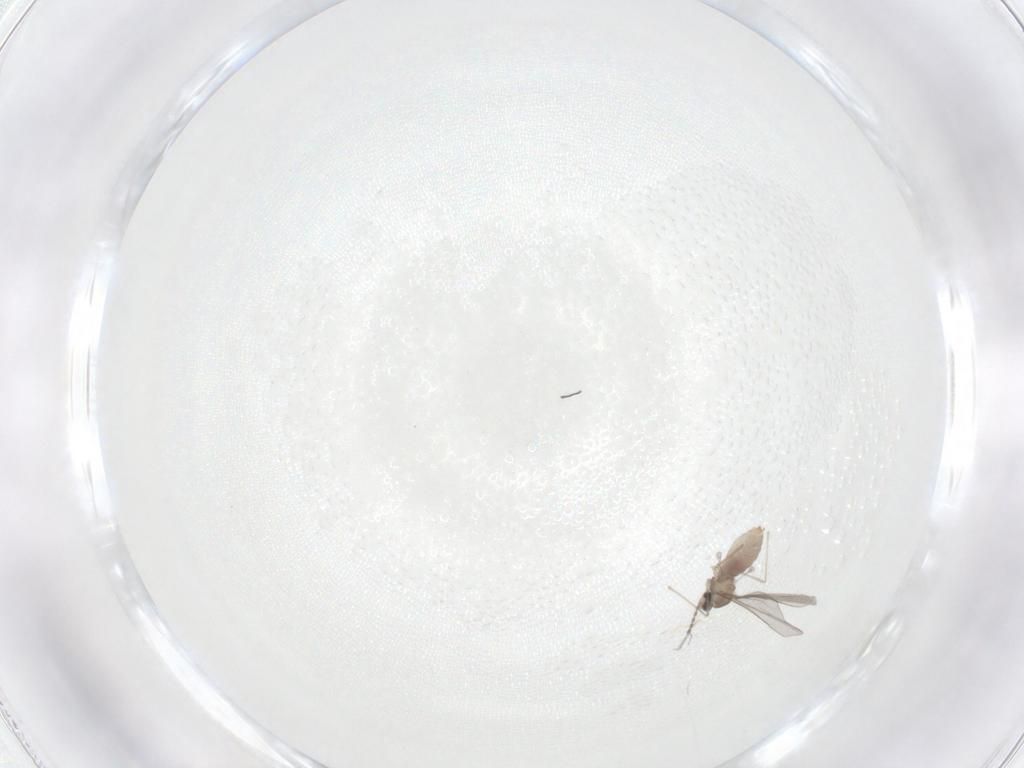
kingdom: Animalia
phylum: Arthropoda
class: Insecta
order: Diptera
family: Cecidomyiidae
